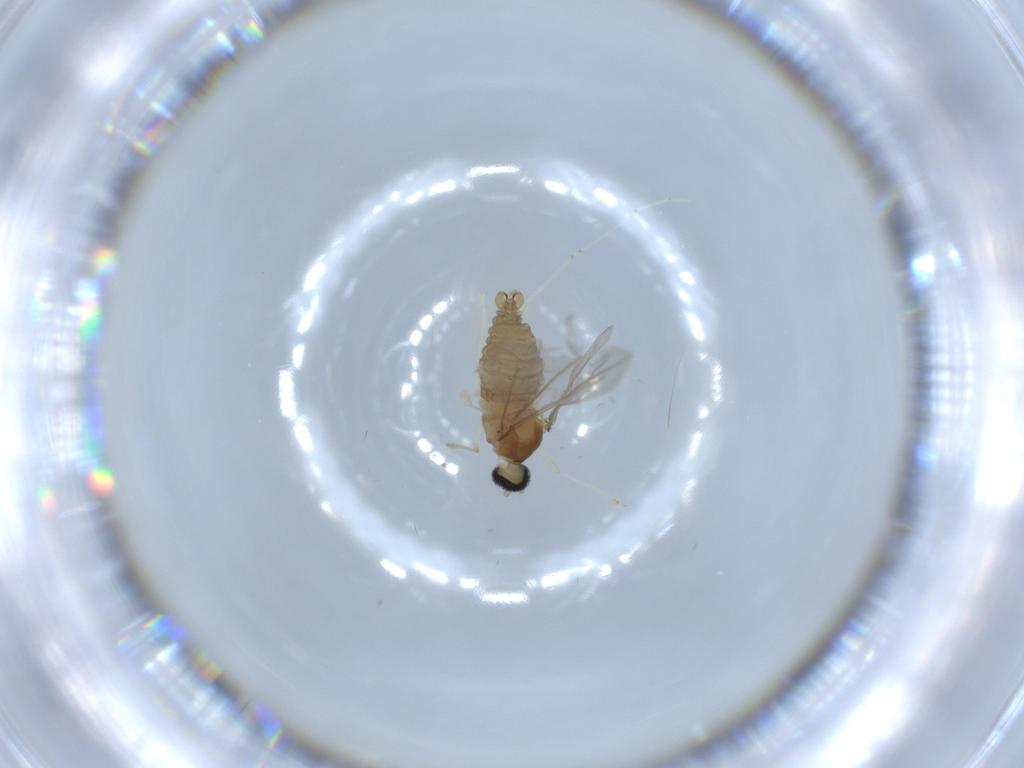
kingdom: Animalia
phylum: Arthropoda
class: Insecta
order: Diptera
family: Cecidomyiidae
